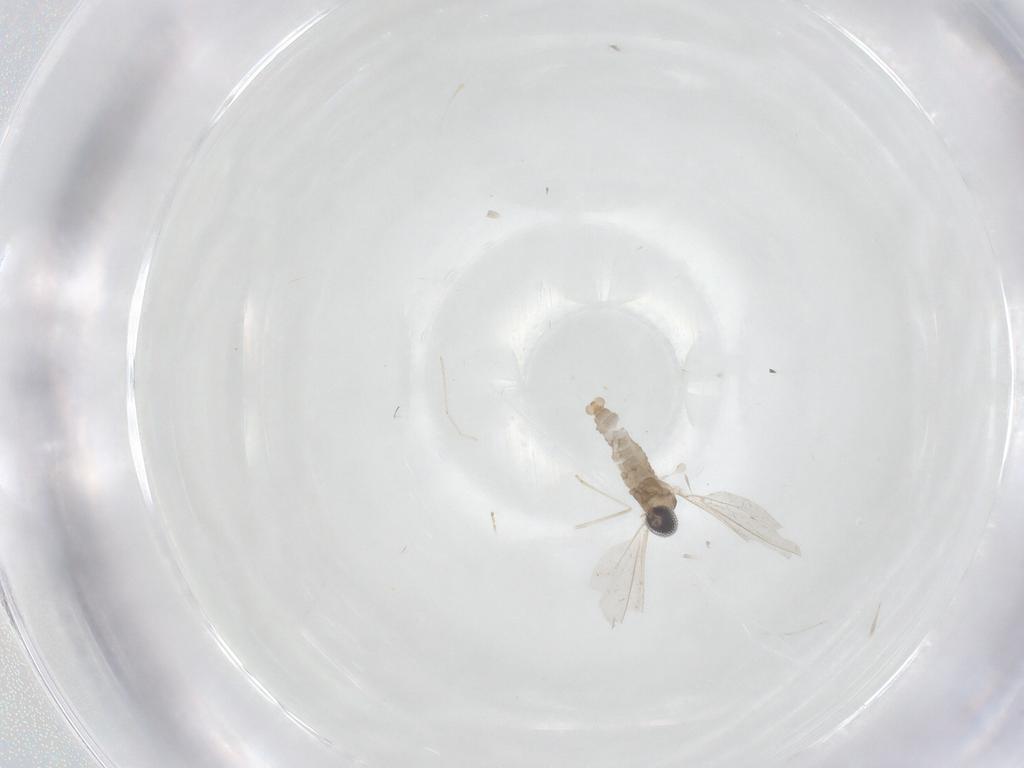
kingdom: Animalia
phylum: Arthropoda
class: Insecta
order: Diptera
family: Cecidomyiidae
